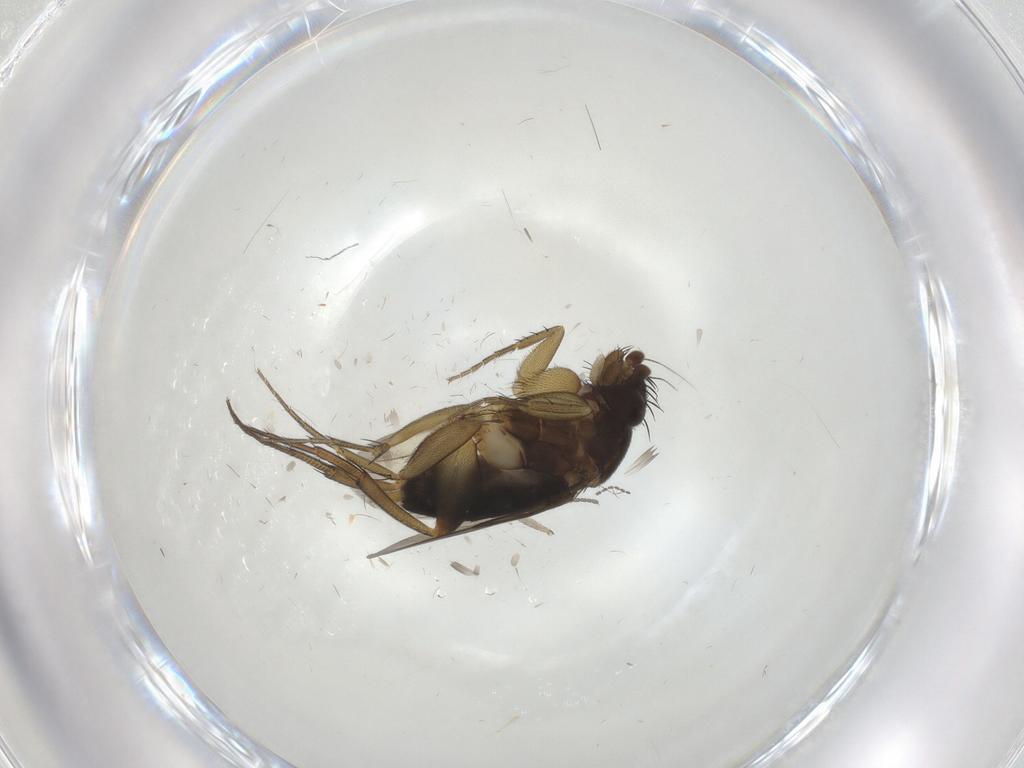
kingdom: Animalia
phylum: Arthropoda
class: Insecta
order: Diptera
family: Phoridae
